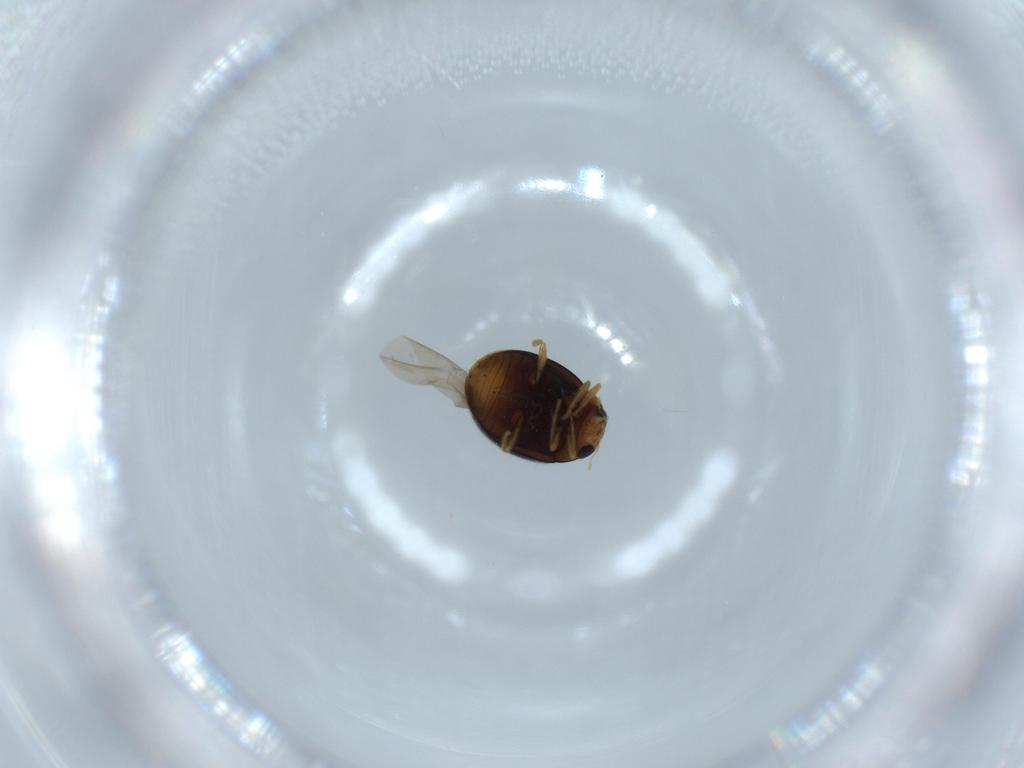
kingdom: Animalia
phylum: Arthropoda
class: Insecta
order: Coleoptera
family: Coccinellidae
